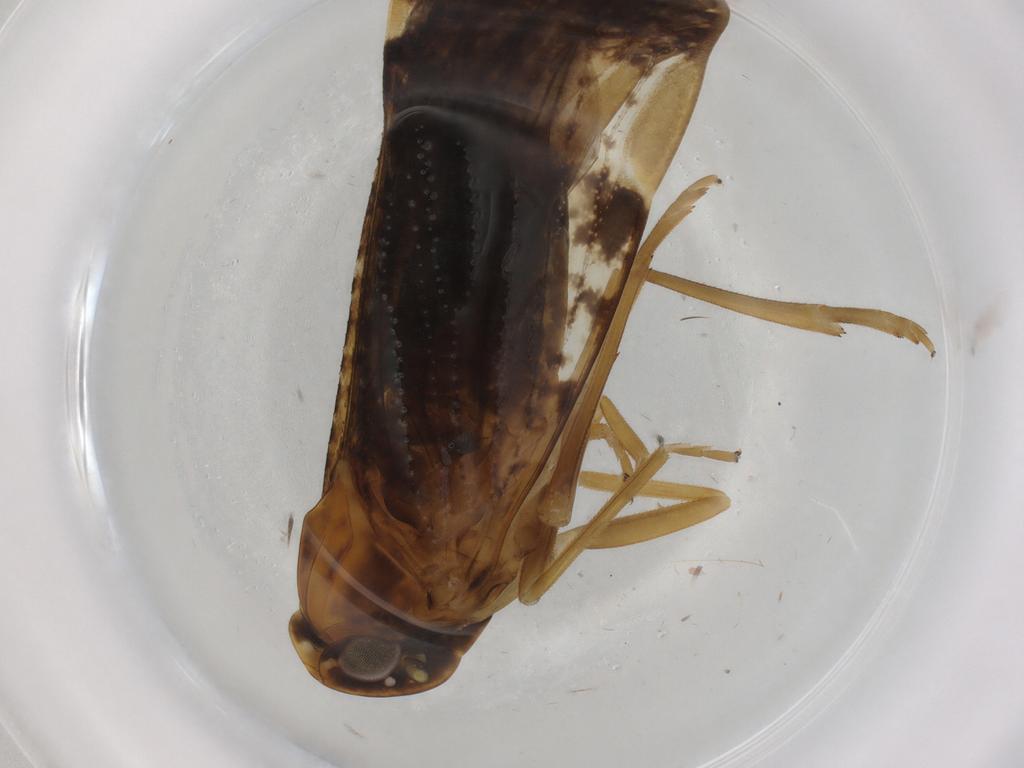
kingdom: Animalia
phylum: Arthropoda
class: Insecta
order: Hemiptera
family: Cixiidae
